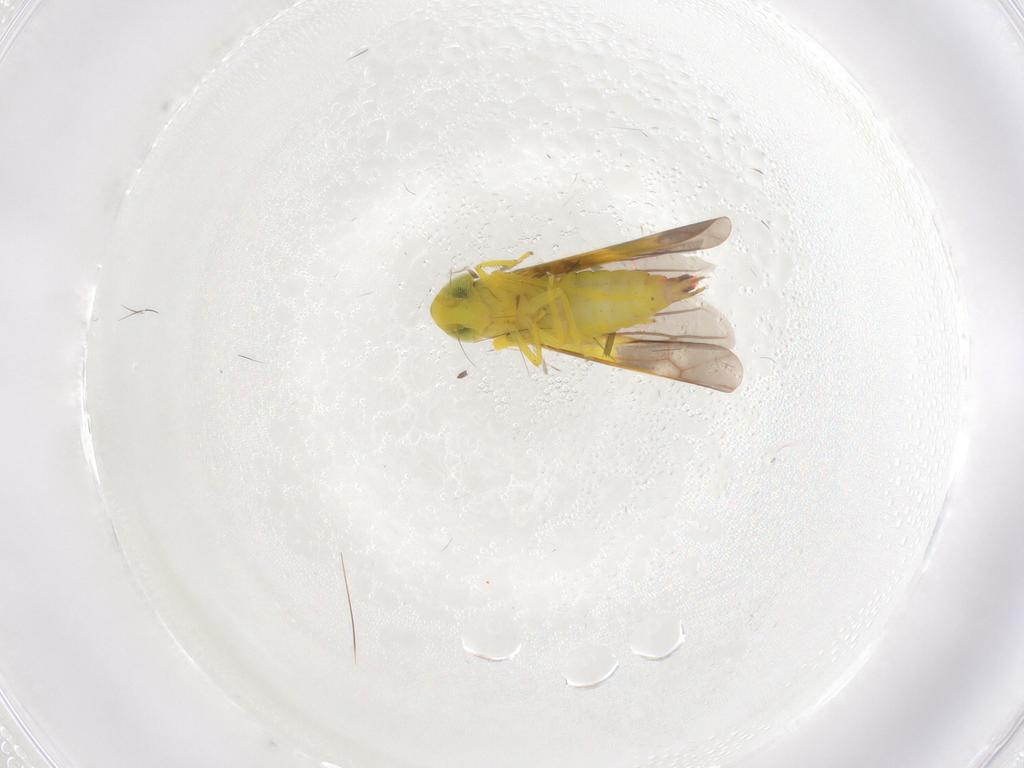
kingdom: Animalia
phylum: Arthropoda
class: Insecta
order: Hemiptera
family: Cicadellidae
